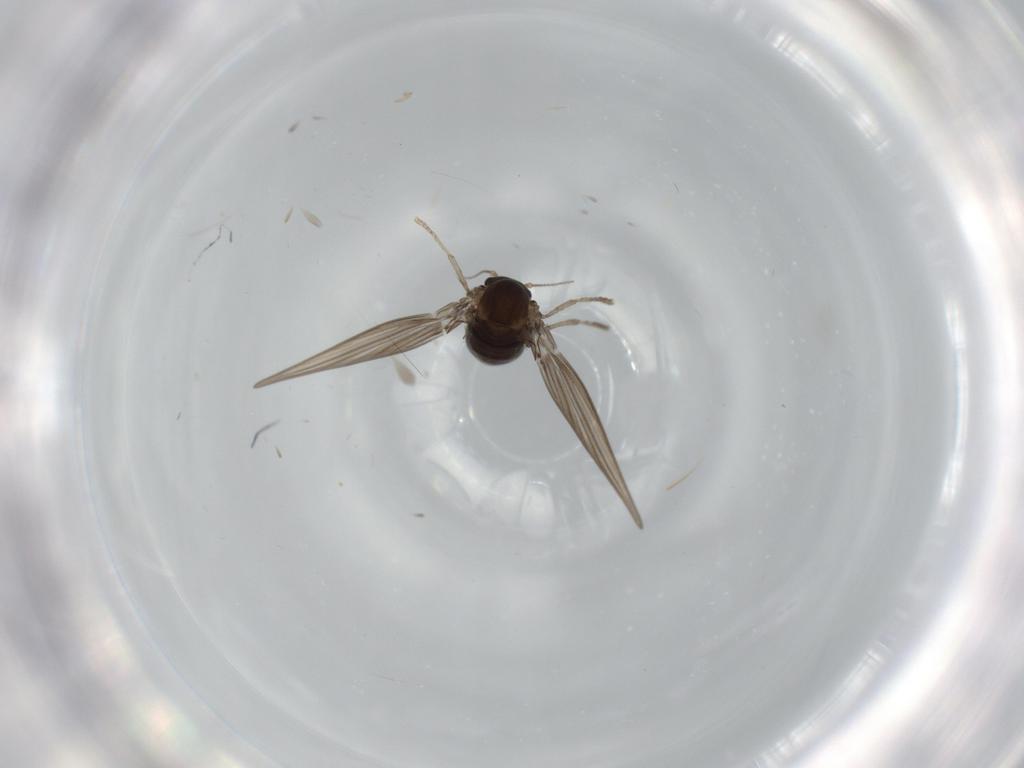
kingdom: Animalia
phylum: Arthropoda
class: Insecta
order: Diptera
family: Psychodidae
